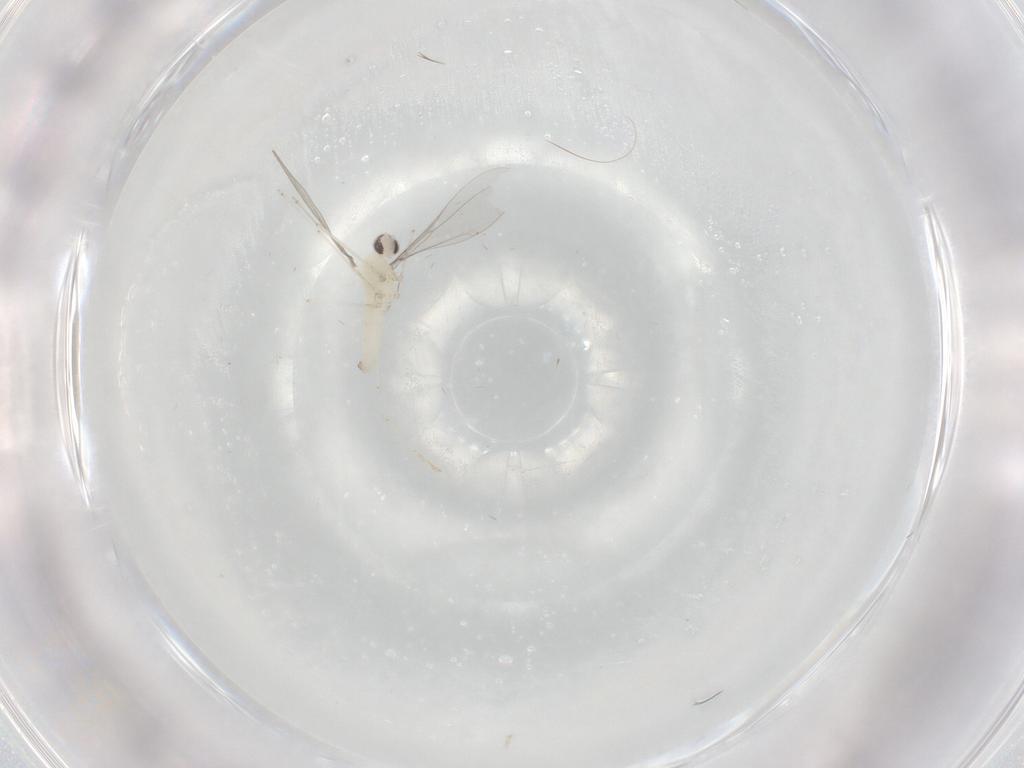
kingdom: Animalia
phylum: Arthropoda
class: Insecta
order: Diptera
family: Cecidomyiidae
